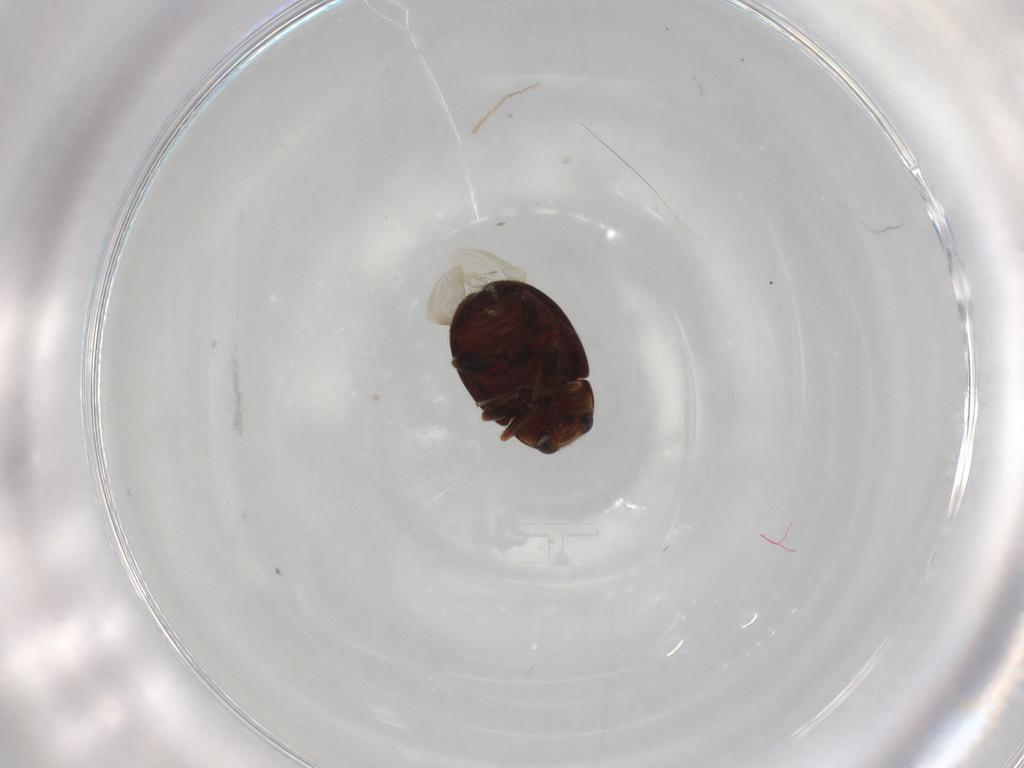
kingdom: Animalia
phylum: Arthropoda
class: Insecta
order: Coleoptera
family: Coccinellidae
